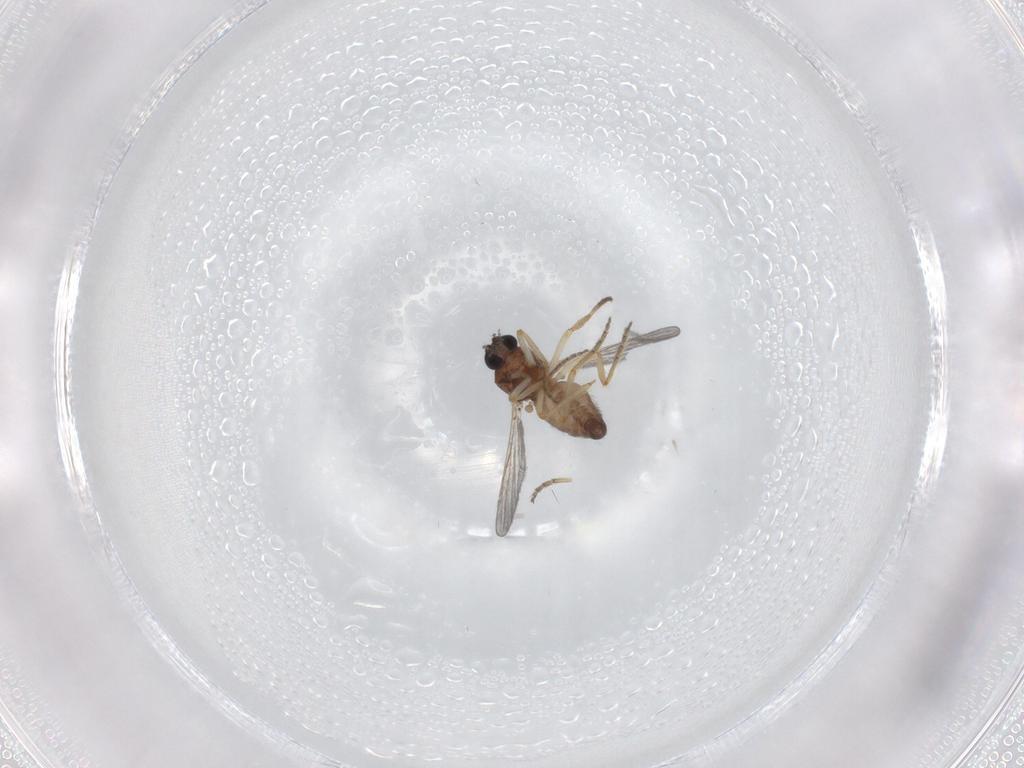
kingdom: Animalia
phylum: Arthropoda
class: Insecta
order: Diptera
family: Ceratopogonidae
